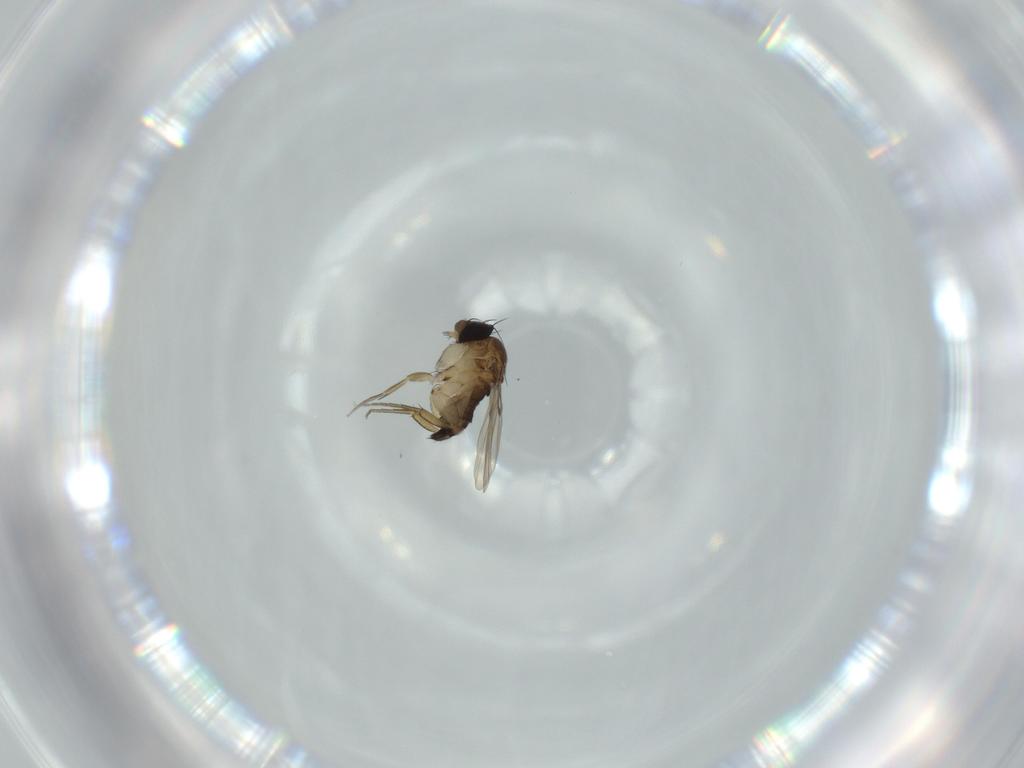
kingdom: Animalia
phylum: Arthropoda
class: Insecta
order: Diptera
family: Phoridae
